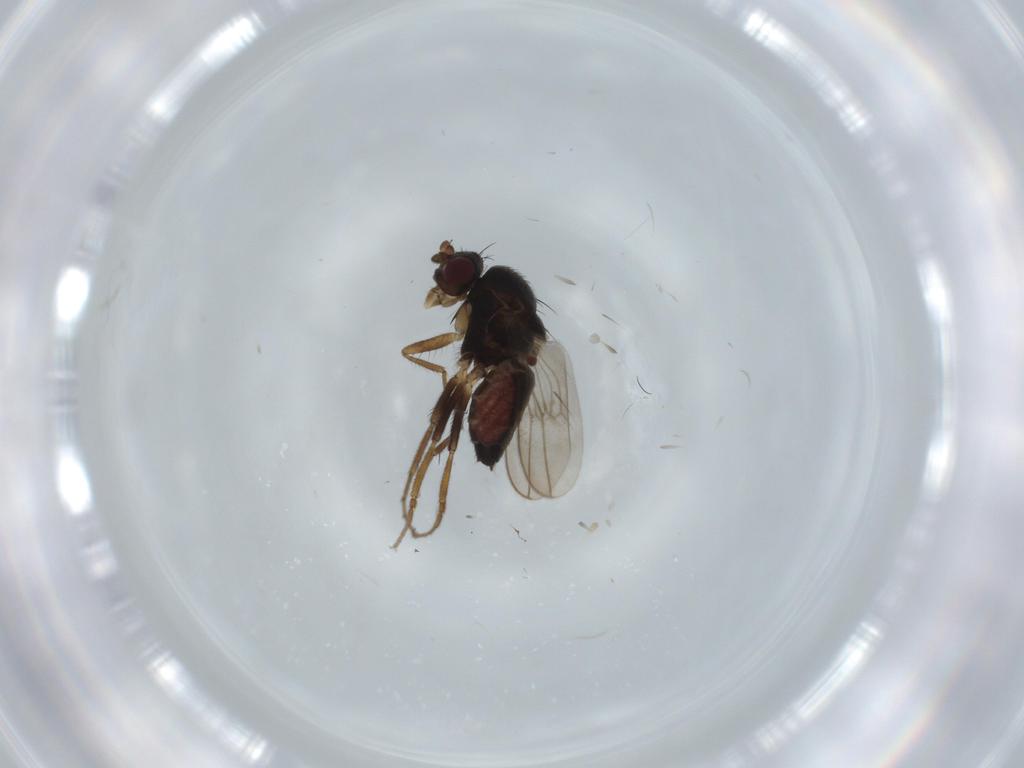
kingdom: Animalia
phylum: Arthropoda
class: Insecta
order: Diptera
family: Sphaeroceridae
